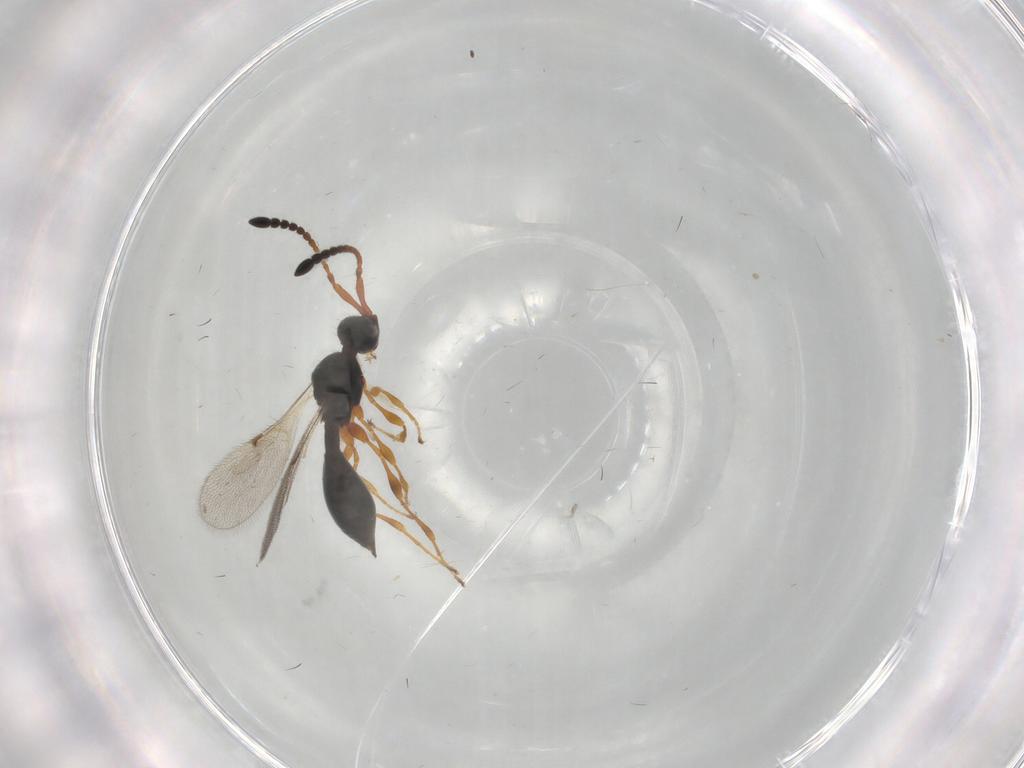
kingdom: Animalia
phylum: Arthropoda
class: Insecta
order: Hymenoptera
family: Diapriidae
